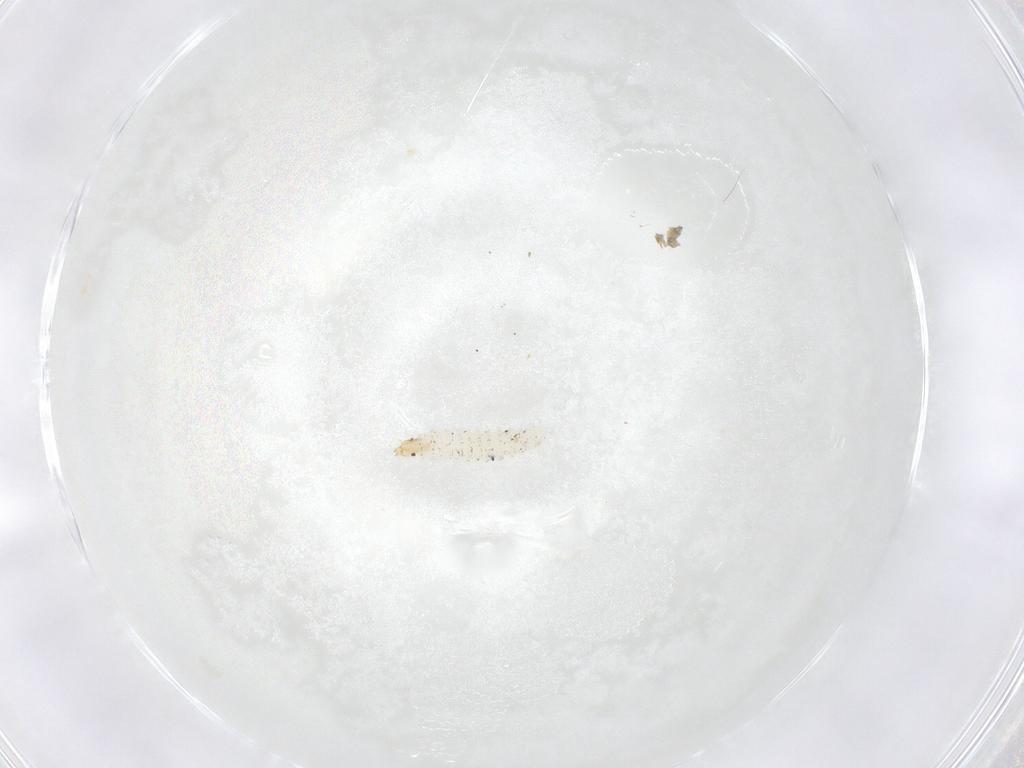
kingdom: Animalia
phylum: Arthropoda
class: Insecta
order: Diptera
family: Stratiomyidae
